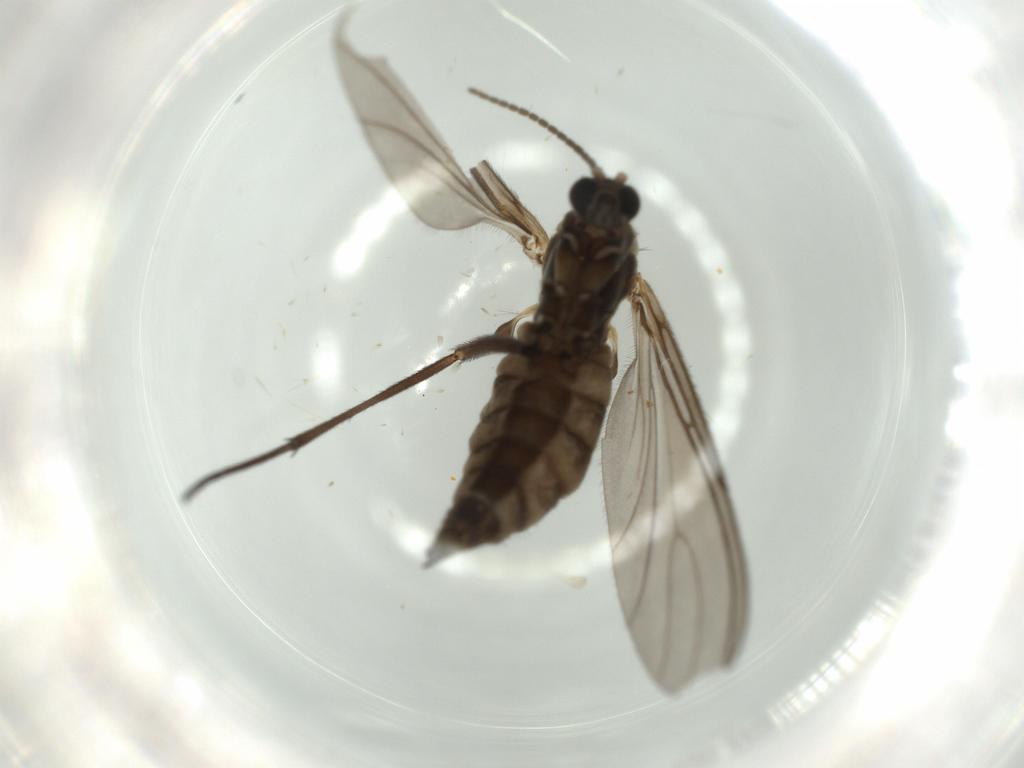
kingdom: Animalia
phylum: Arthropoda
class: Insecta
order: Diptera
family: Sciaridae
